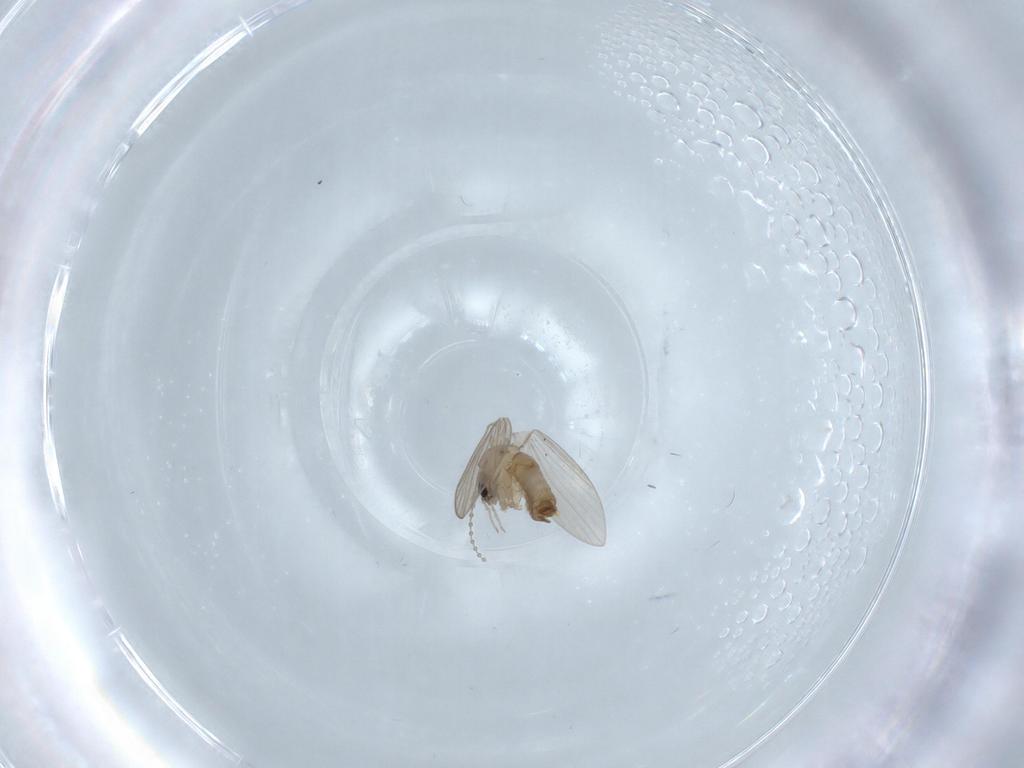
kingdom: Animalia
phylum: Arthropoda
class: Insecta
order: Diptera
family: Psychodidae
